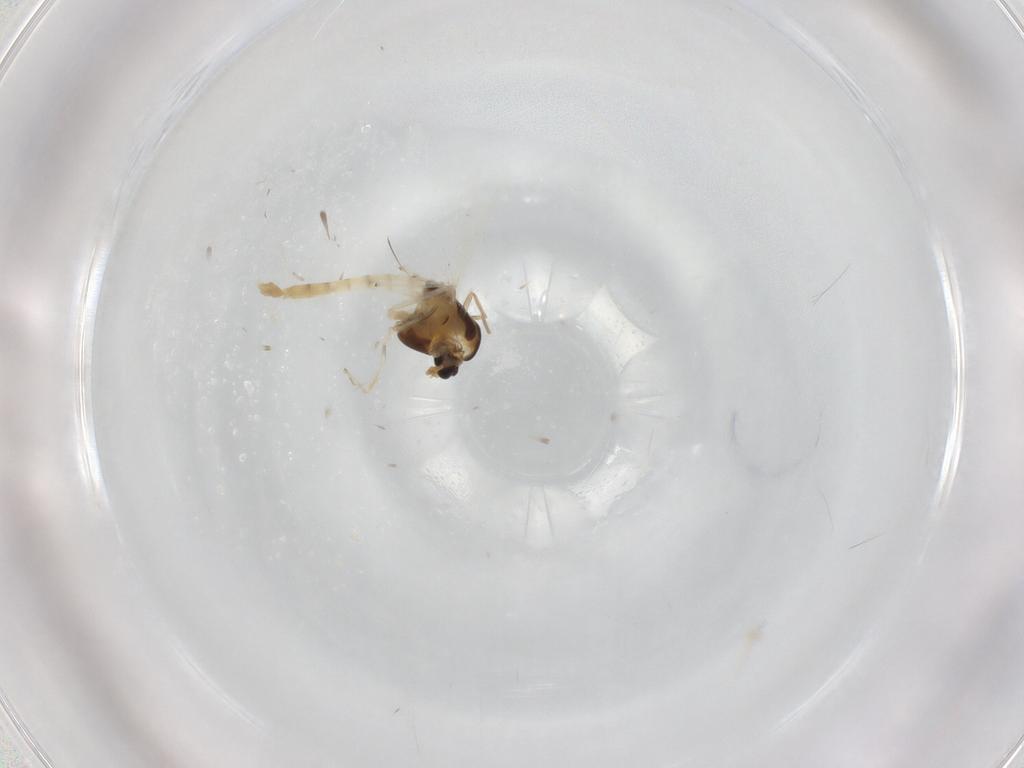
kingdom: Animalia
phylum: Arthropoda
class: Insecta
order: Diptera
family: Chironomidae
